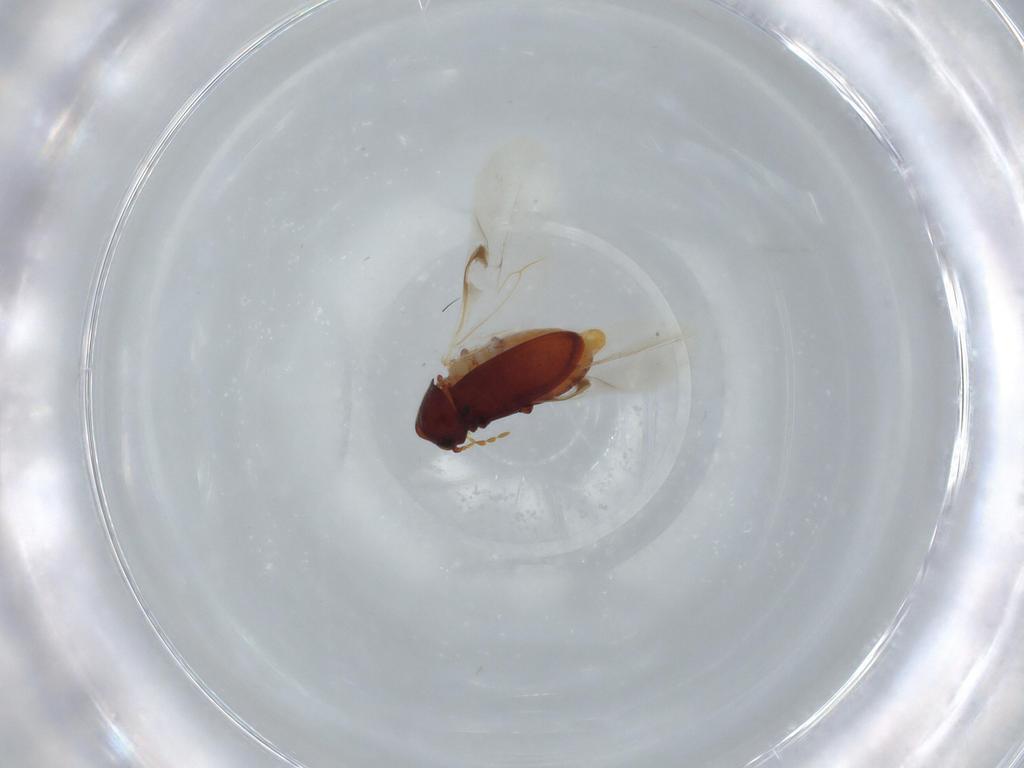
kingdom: Animalia
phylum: Arthropoda
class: Insecta
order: Coleoptera
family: Ptinidae
